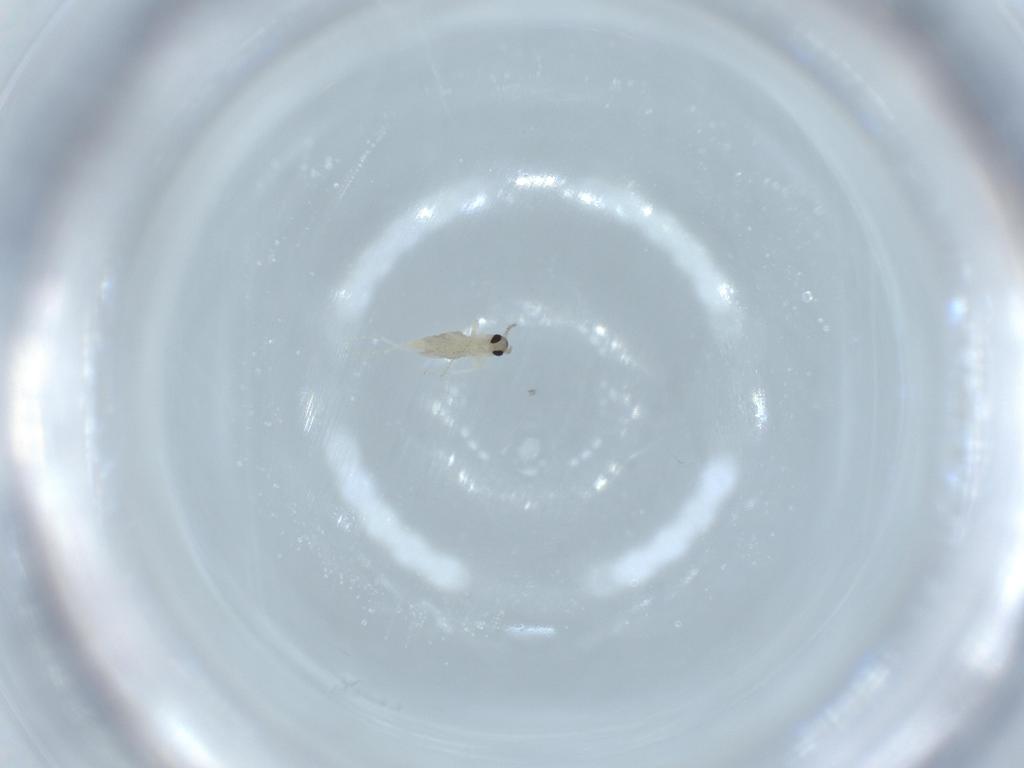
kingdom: Animalia
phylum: Arthropoda
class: Insecta
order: Diptera
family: Cecidomyiidae
